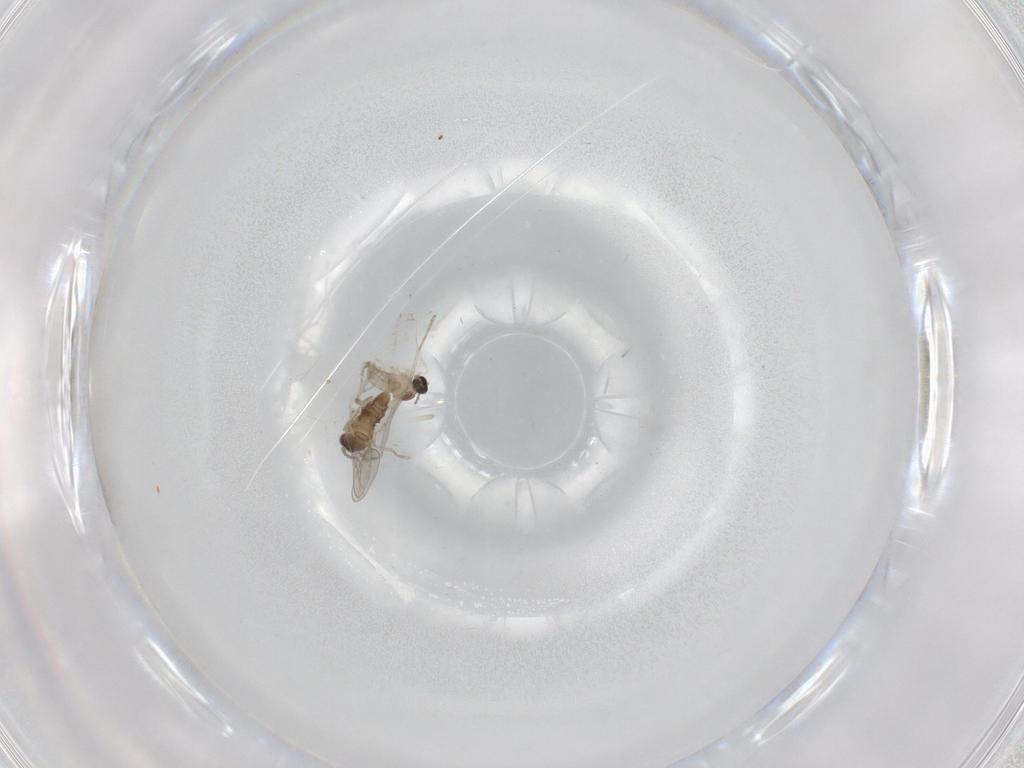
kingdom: Animalia
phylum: Arthropoda
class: Insecta
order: Diptera
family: Cecidomyiidae
